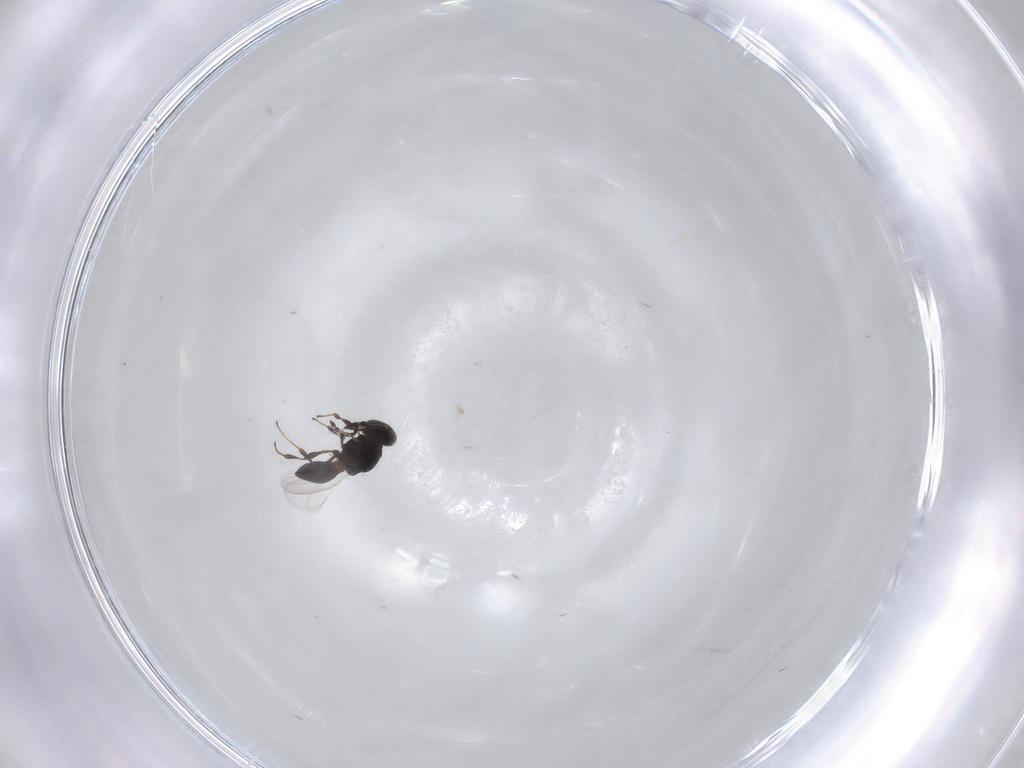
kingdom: Animalia
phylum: Arthropoda
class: Insecta
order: Hymenoptera
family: Platygastridae
